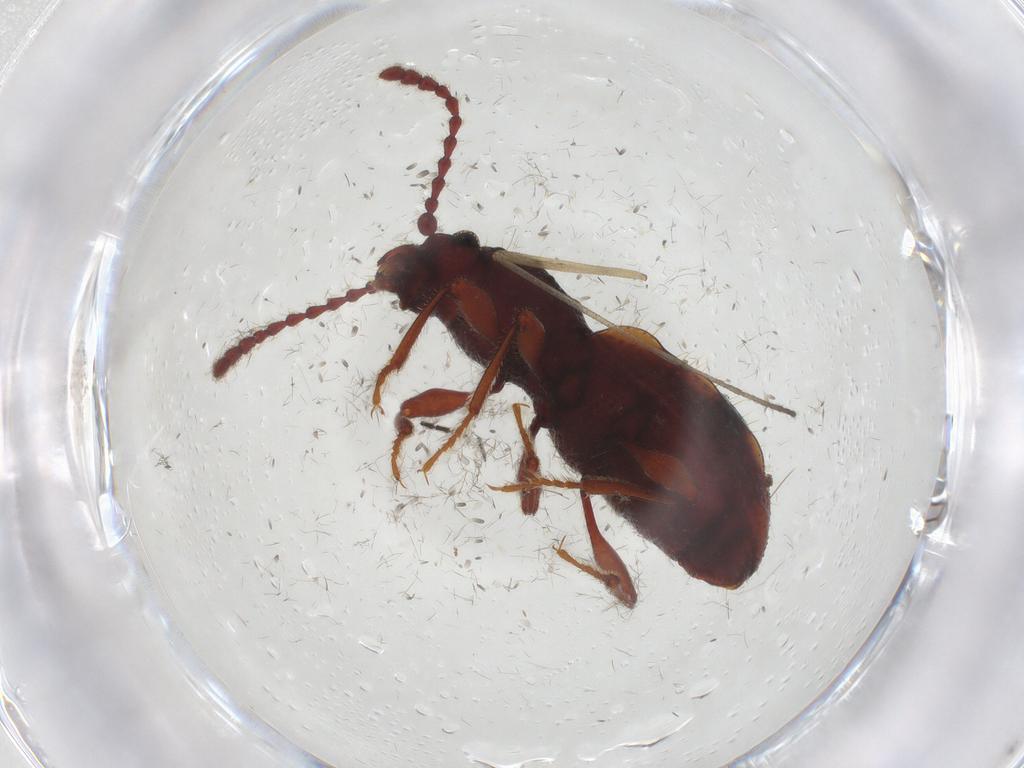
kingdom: Animalia
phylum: Arthropoda
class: Insecta
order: Coleoptera
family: Ptinidae
